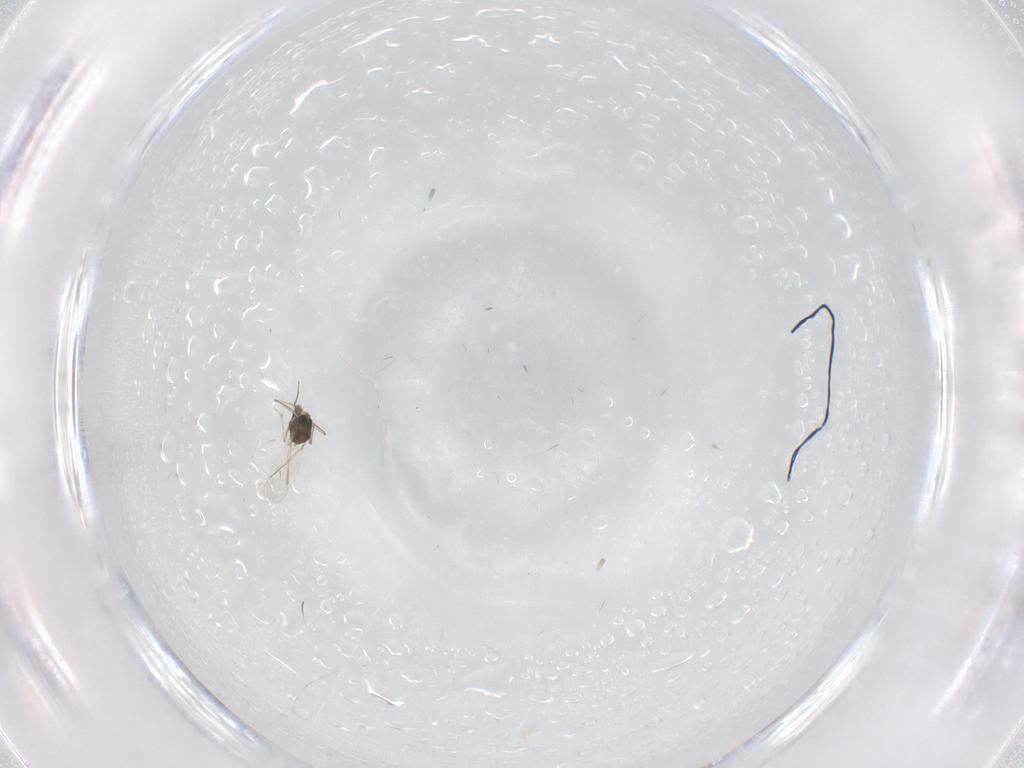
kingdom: Animalia
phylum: Arthropoda
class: Insecta
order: Diptera
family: Chironomidae
